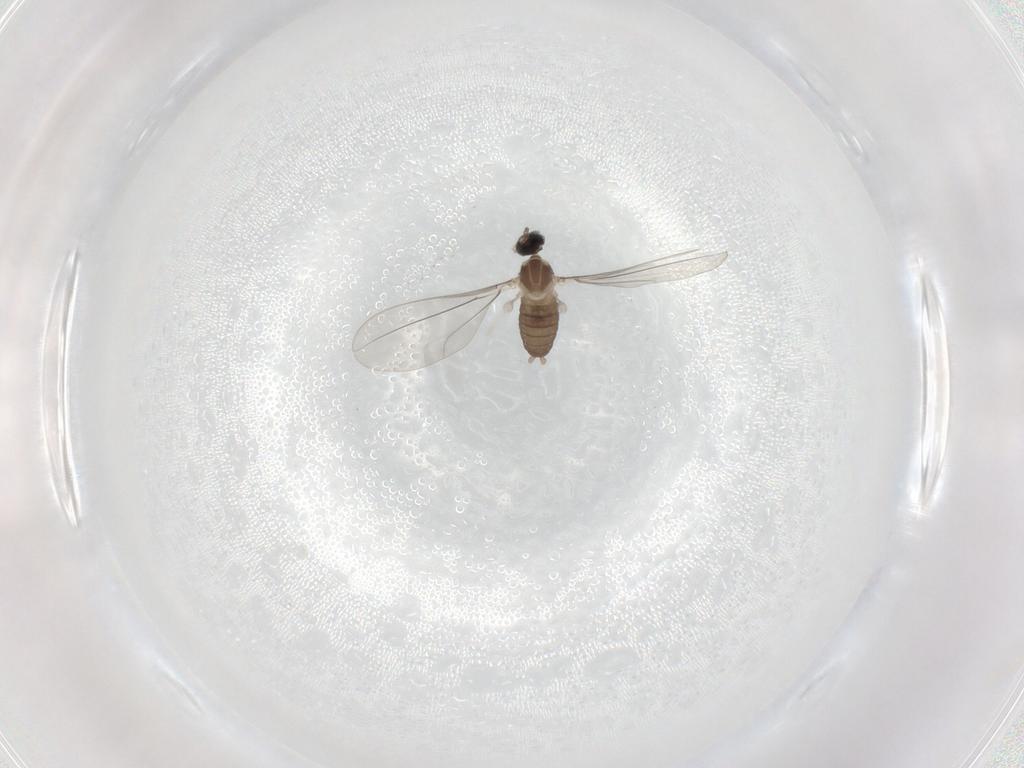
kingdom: Animalia
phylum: Arthropoda
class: Insecta
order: Diptera
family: Cecidomyiidae
